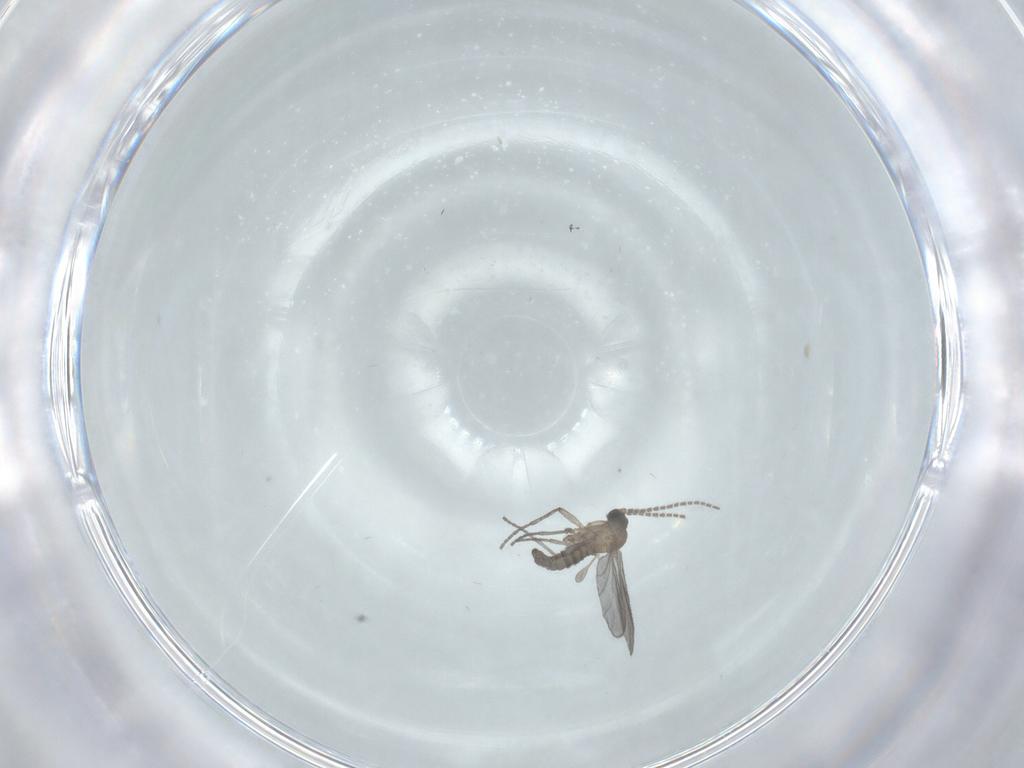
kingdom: Animalia
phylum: Arthropoda
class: Insecta
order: Diptera
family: Sciaridae
